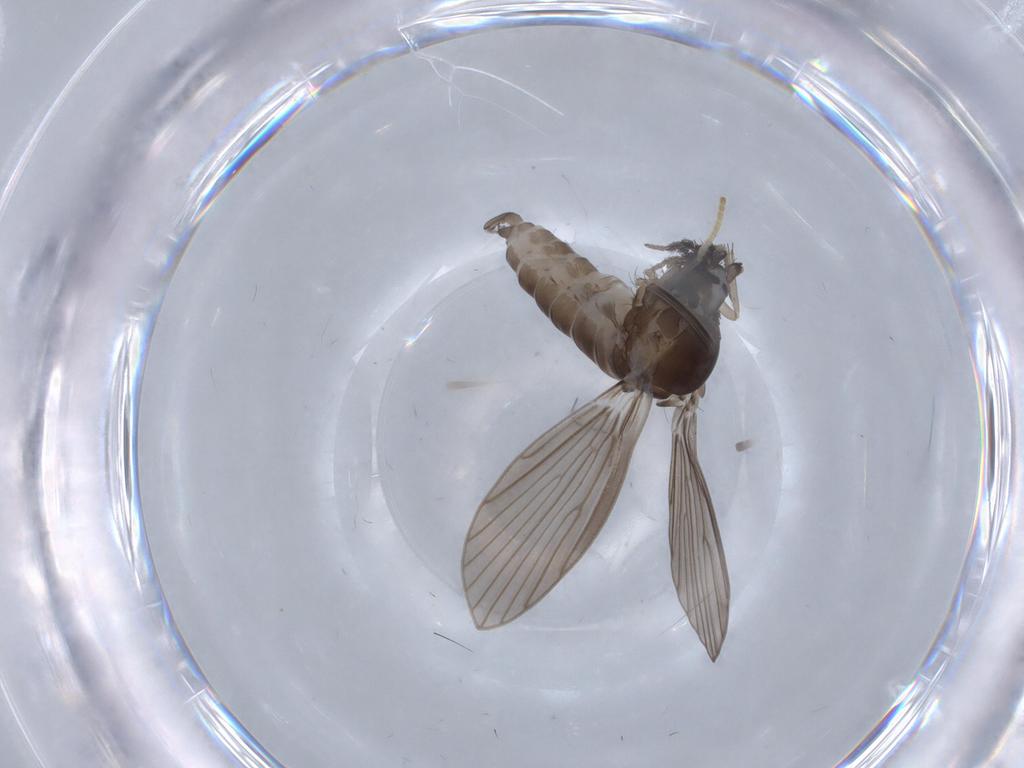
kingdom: Animalia
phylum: Arthropoda
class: Insecta
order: Diptera
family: Psychodidae
